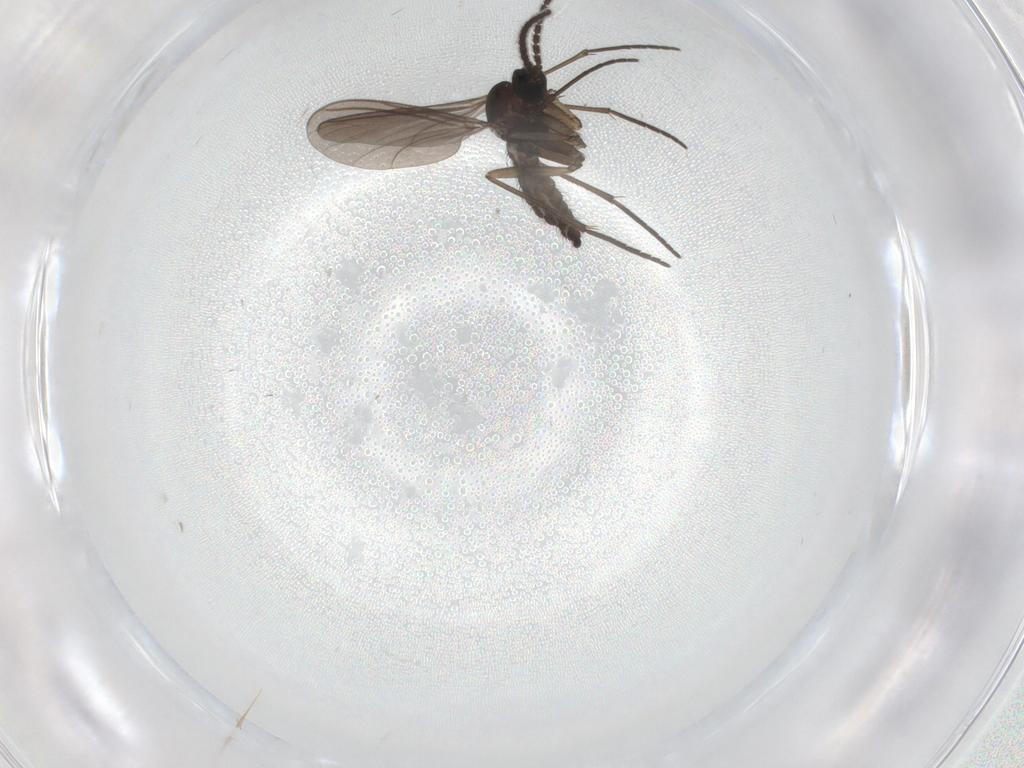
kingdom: Animalia
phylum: Arthropoda
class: Insecta
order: Diptera
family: Sciaridae
